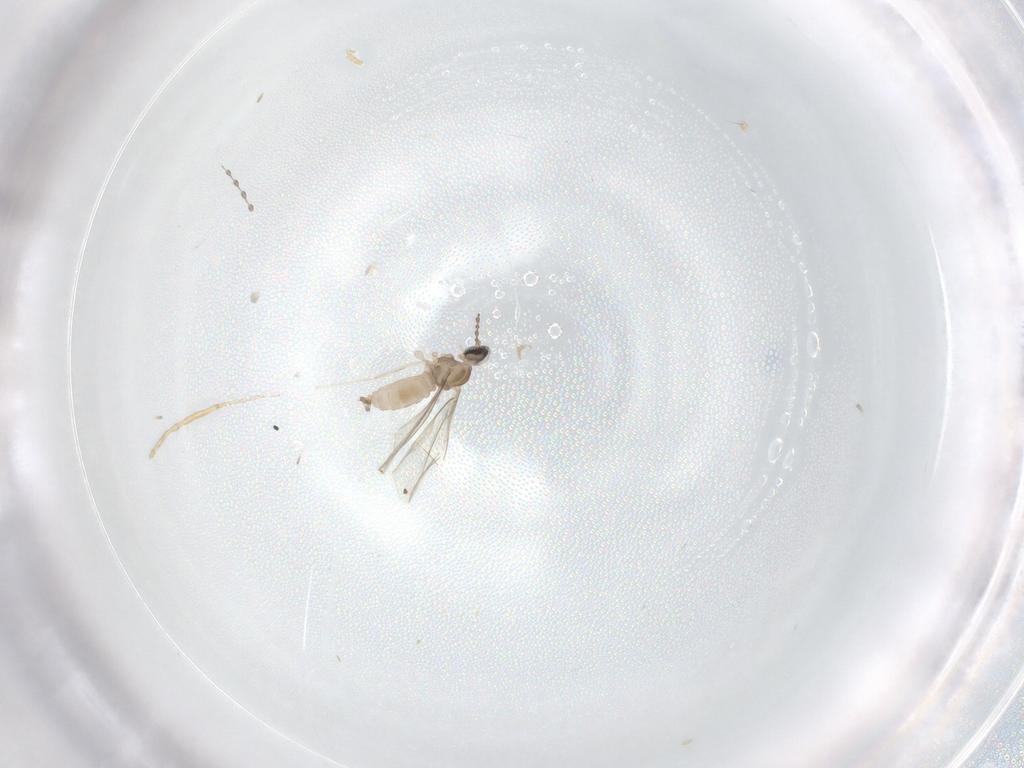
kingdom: Animalia
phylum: Arthropoda
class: Insecta
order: Diptera
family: Cecidomyiidae
